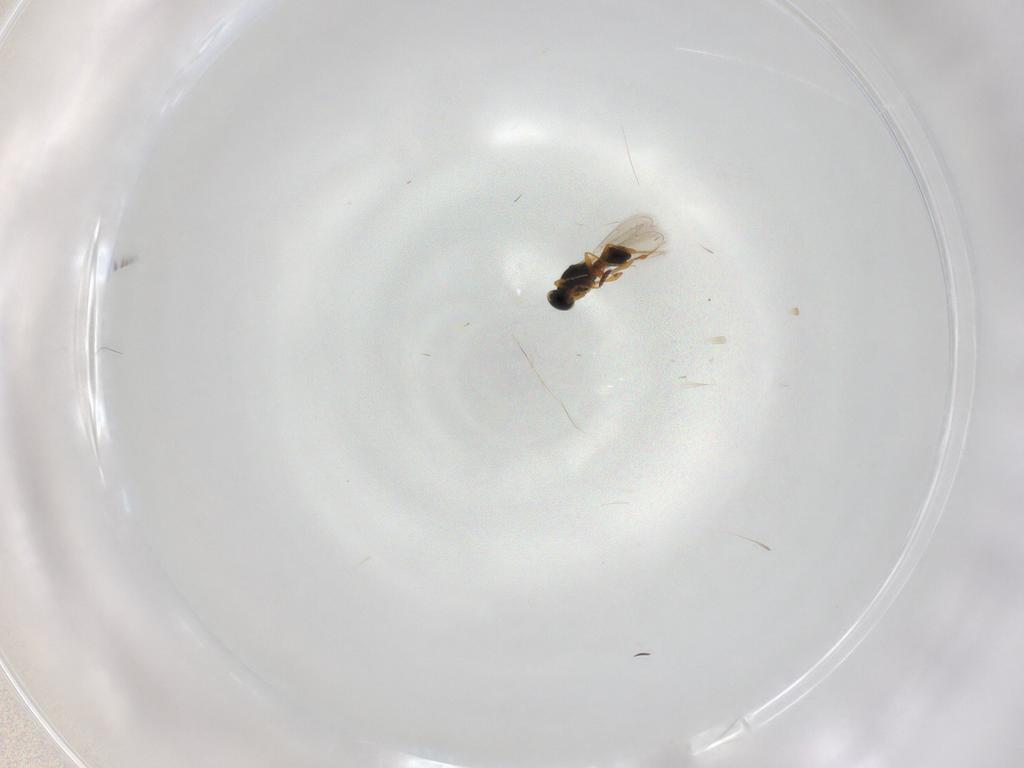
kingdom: Animalia
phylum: Arthropoda
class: Insecta
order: Hymenoptera
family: Platygastridae
